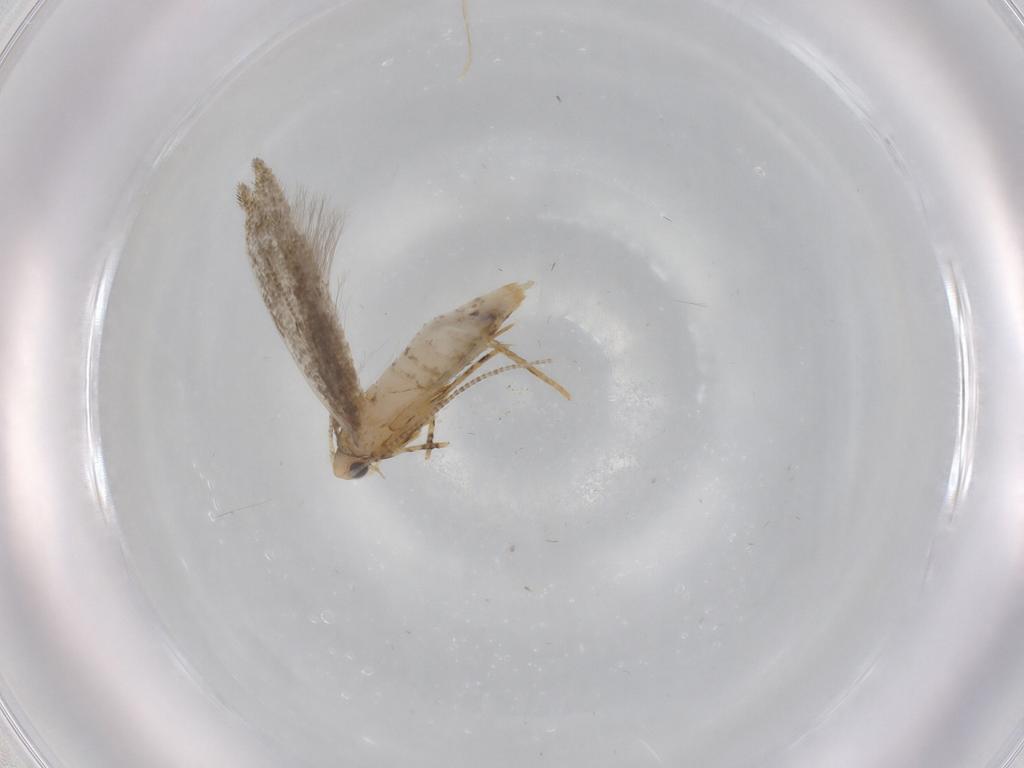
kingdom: Animalia
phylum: Arthropoda
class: Insecta
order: Lepidoptera
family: Tineidae
